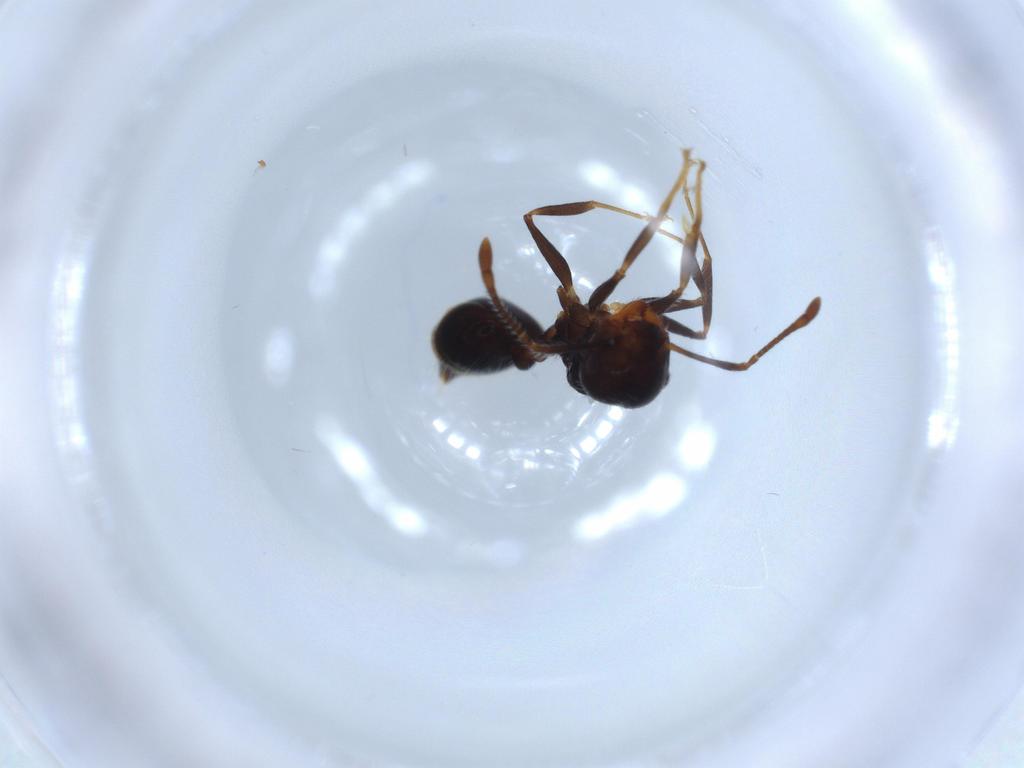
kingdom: Animalia
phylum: Arthropoda
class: Insecta
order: Hymenoptera
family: Formicidae
